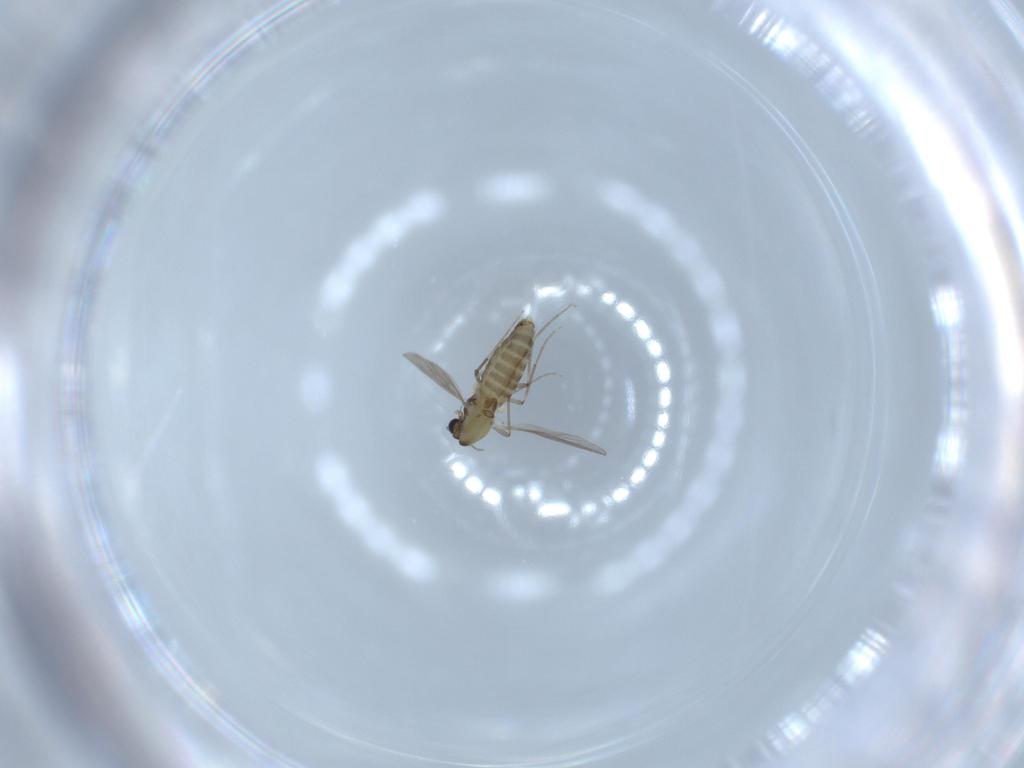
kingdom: Animalia
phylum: Arthropoda
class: Insecta
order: Diptera
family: Chironomidae
